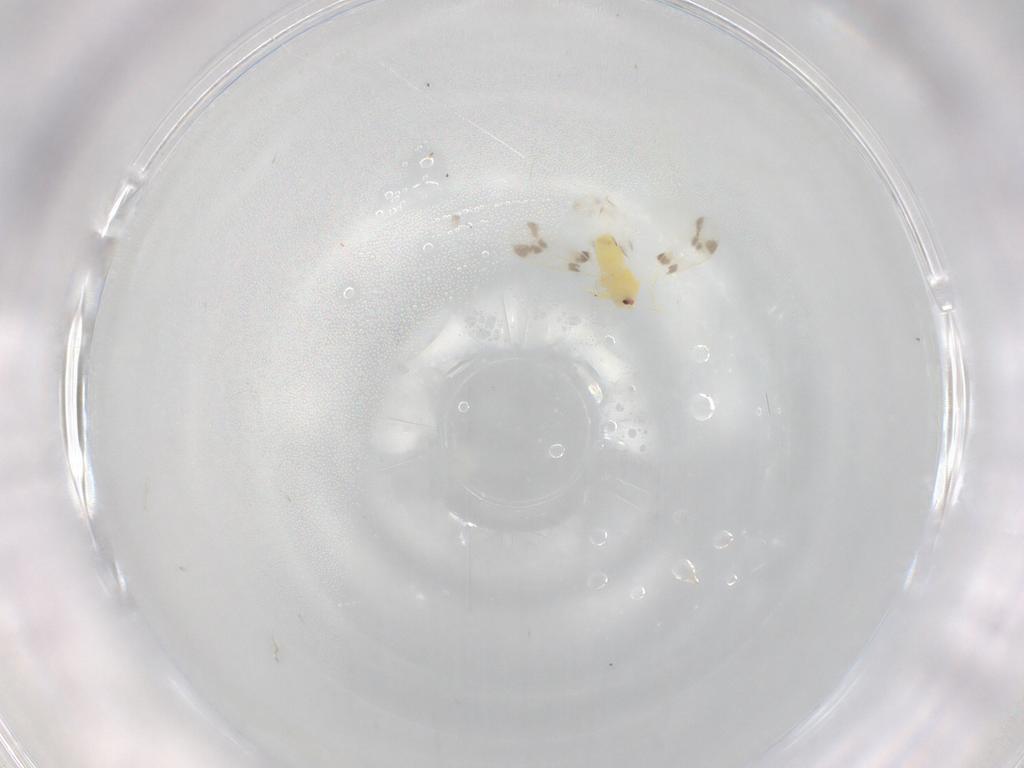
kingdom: Animalia
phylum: Arthropoda
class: Insecta
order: Hemiptera
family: Aleyrodidae
